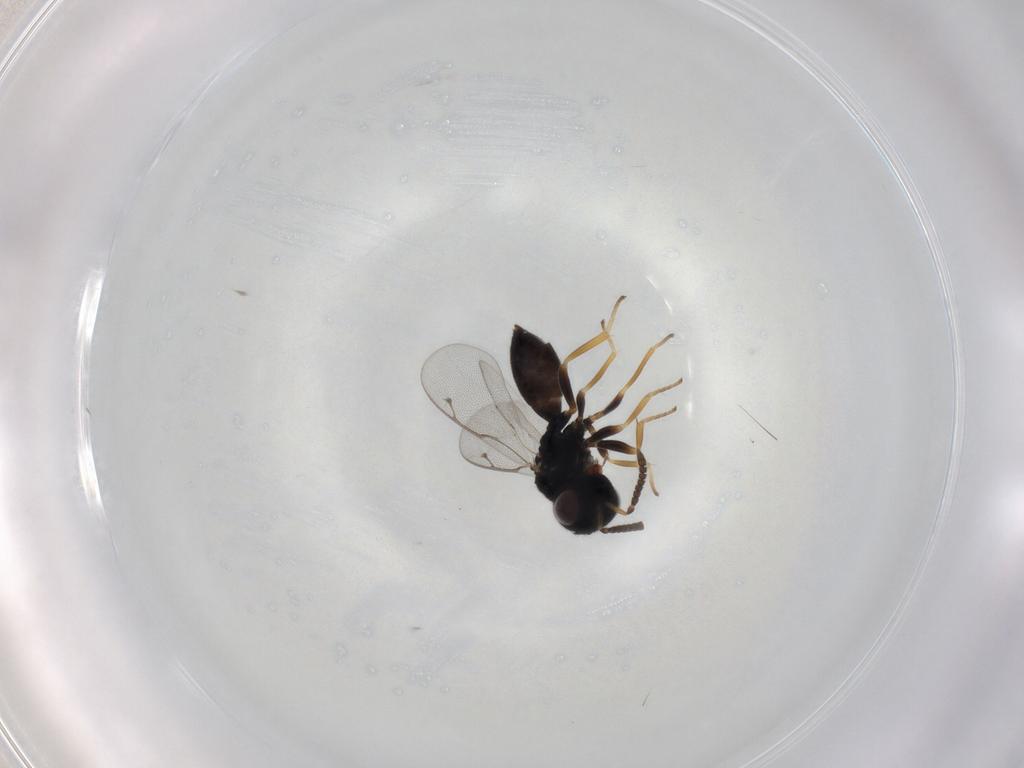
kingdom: Animalia
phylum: Arthropoda
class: Insecta
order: Hymenoptera
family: Pteromalidae
